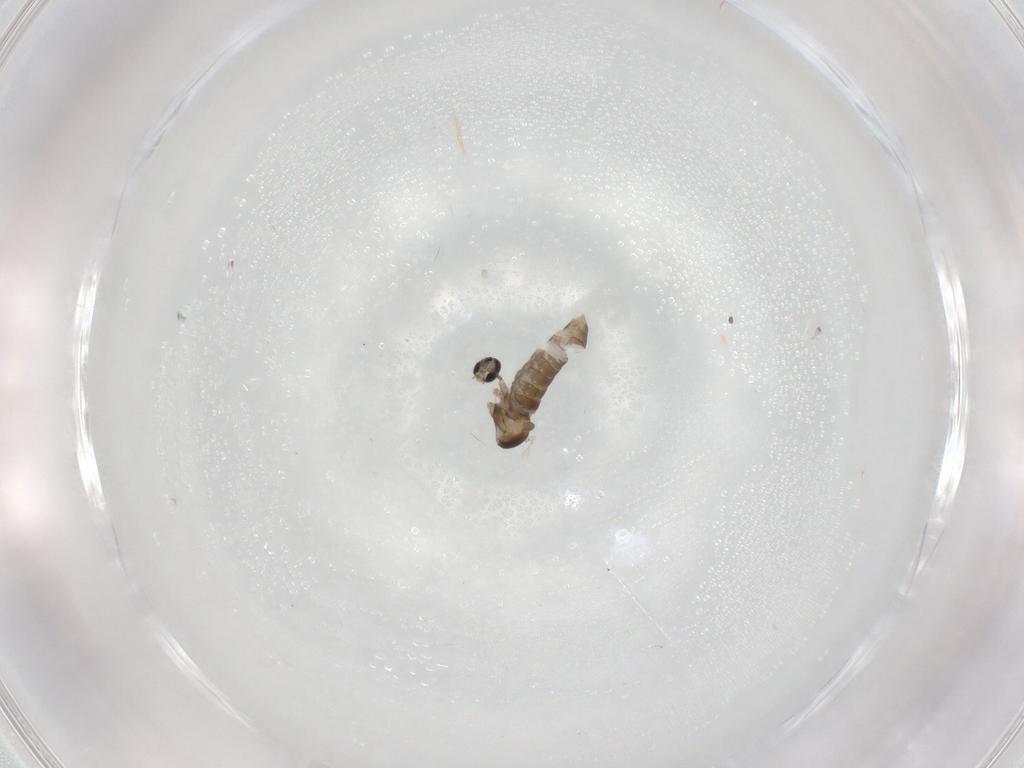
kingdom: Animalia
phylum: Arthropoda
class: Insecta
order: Diptera
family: Cecidomyiidae
